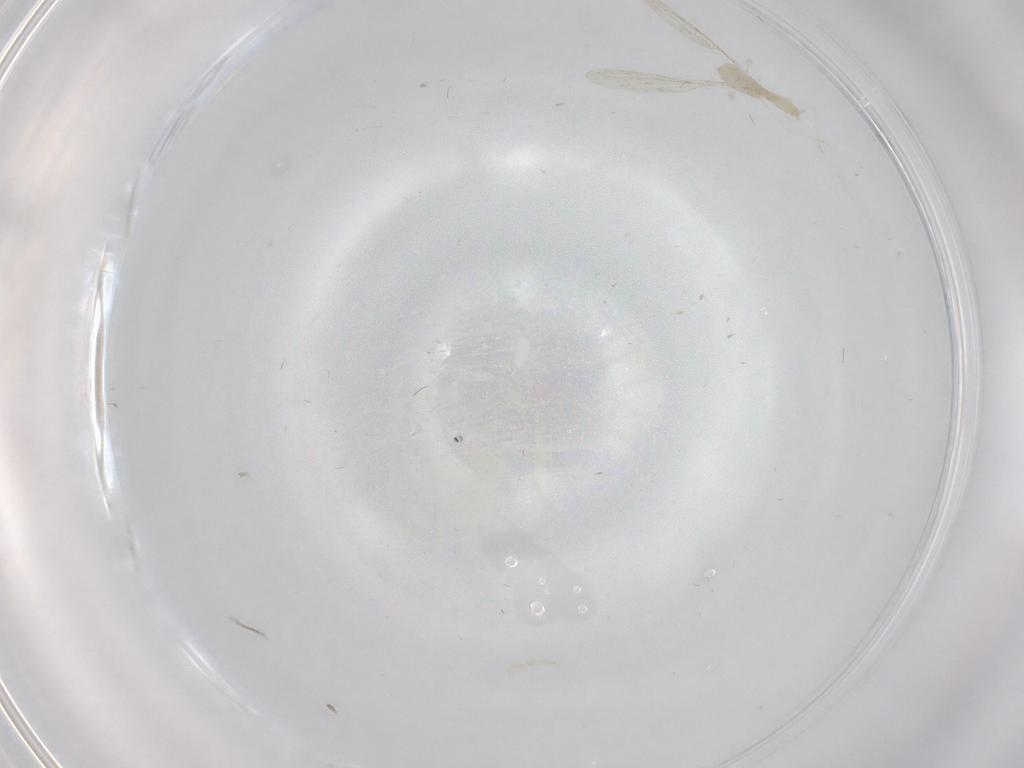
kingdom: Animalia
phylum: Arthropoda
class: Insecta
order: Diptera
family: Cecidomyiidae
